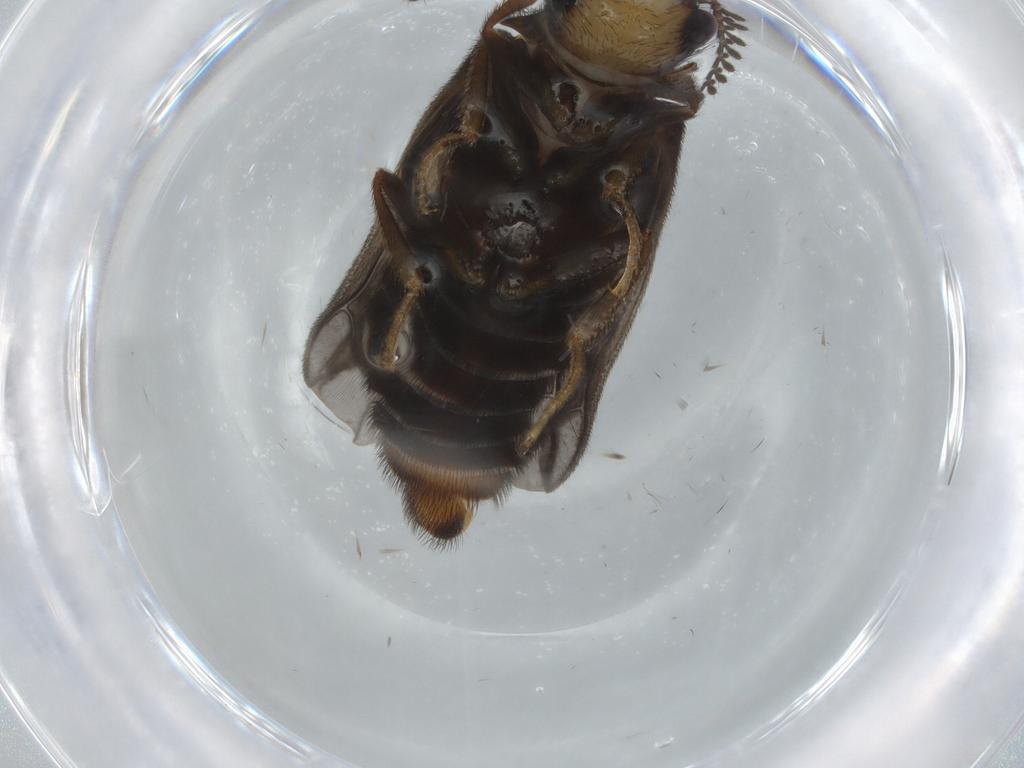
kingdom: Animalia
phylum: Arthropoda
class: Insecta
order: Coleoptera
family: Phengodidae
